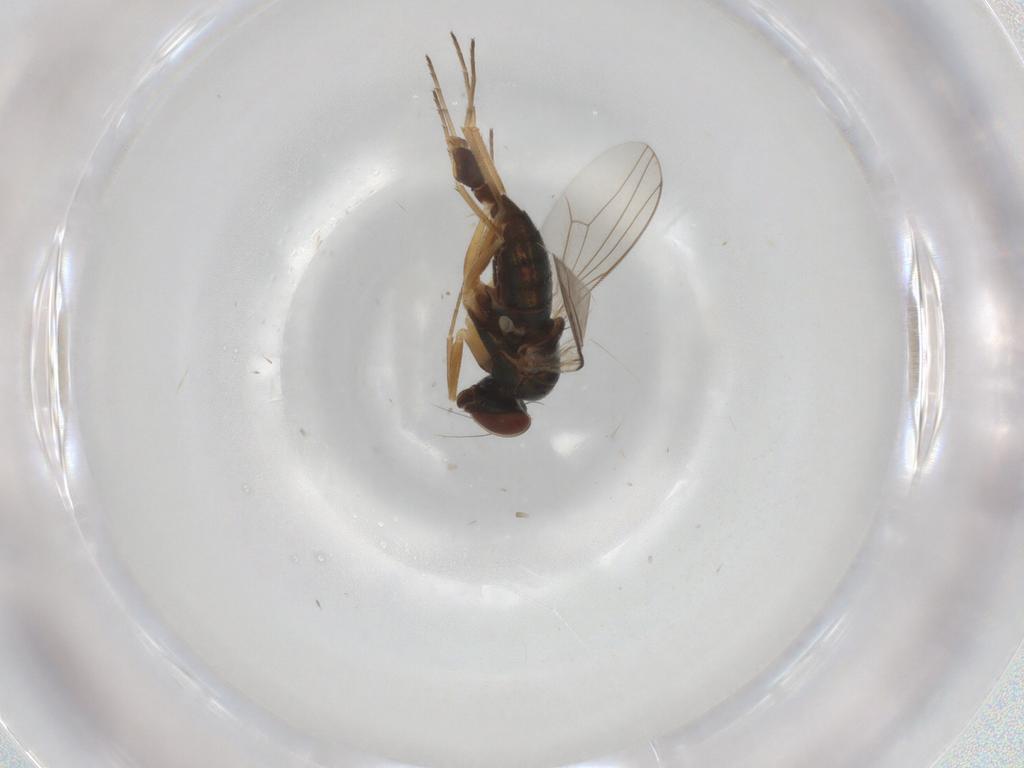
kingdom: Animalia
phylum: Arthropoda
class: Insecta
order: Diptera
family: Dolichopodidae
